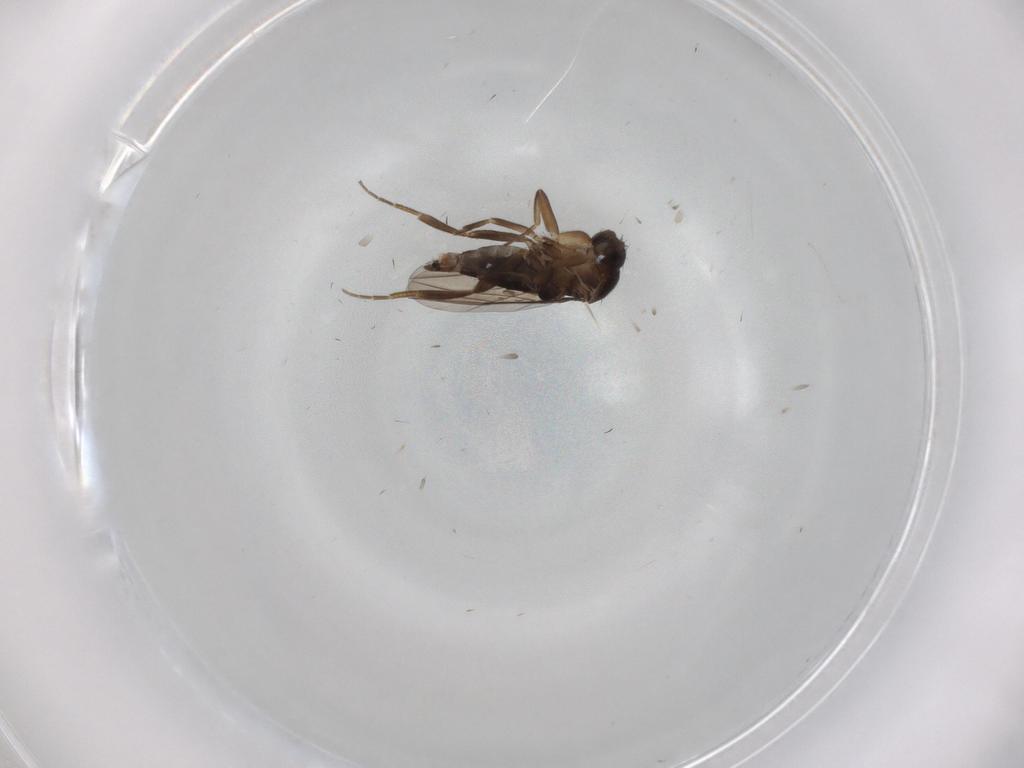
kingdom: Animalia
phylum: Arthropoda
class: Insecta
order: Diptera
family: Phoridae
